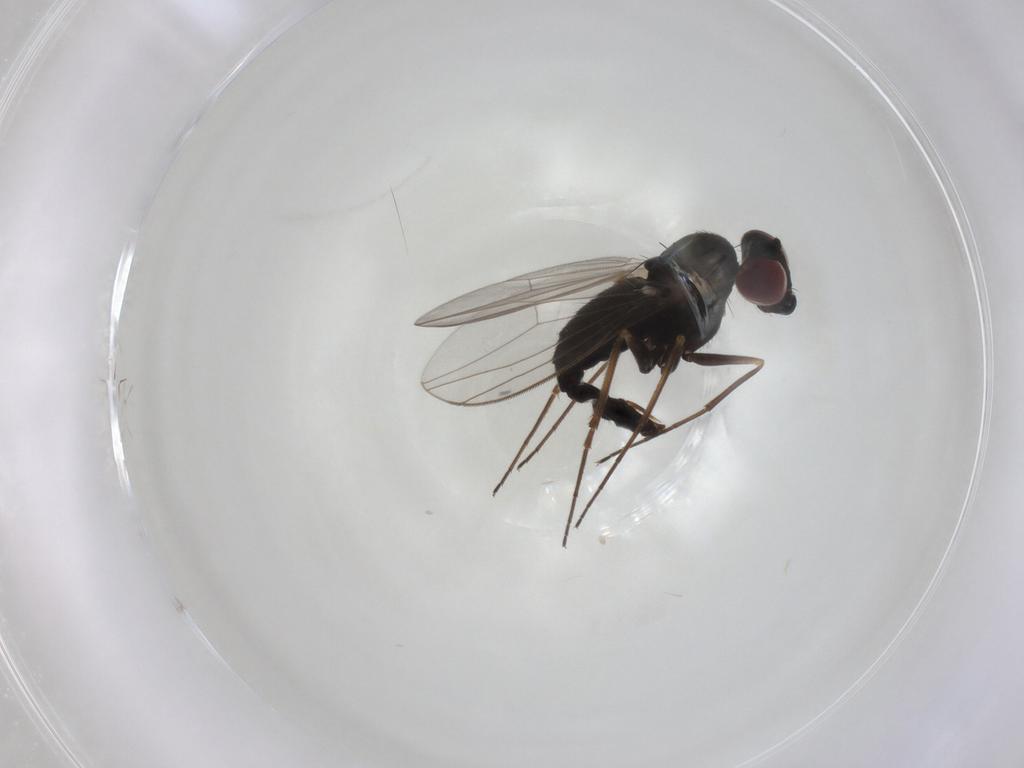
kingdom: Animalia
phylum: Arthropoda
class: Insecta
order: Diptera
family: Dolichopodidae
